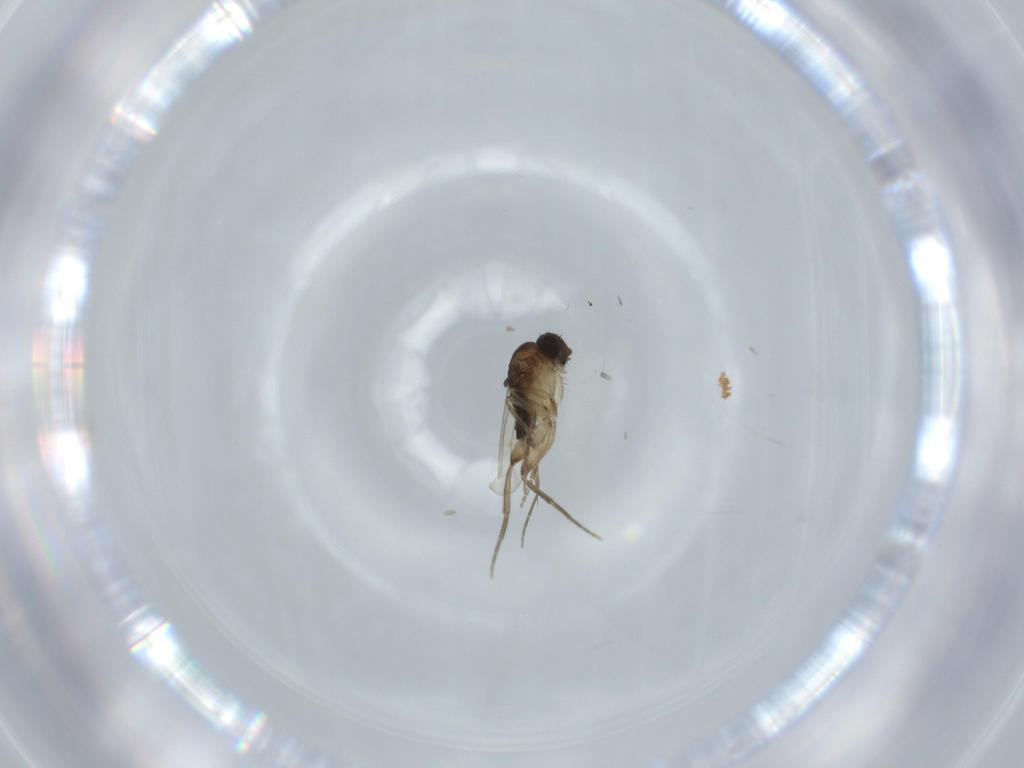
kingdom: Animalia
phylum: Arthropoda
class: Insecta
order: Diptera
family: Phoridae
